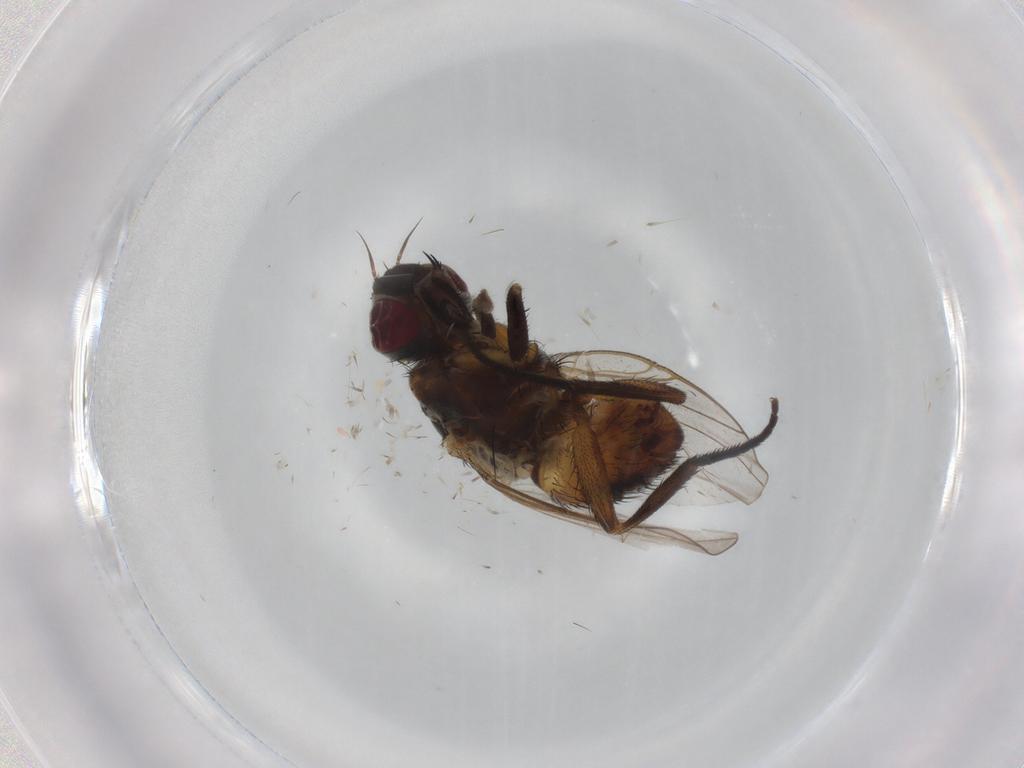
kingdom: Animalia
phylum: Arthropoda
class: Insecta
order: Diptera
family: Muscidae
